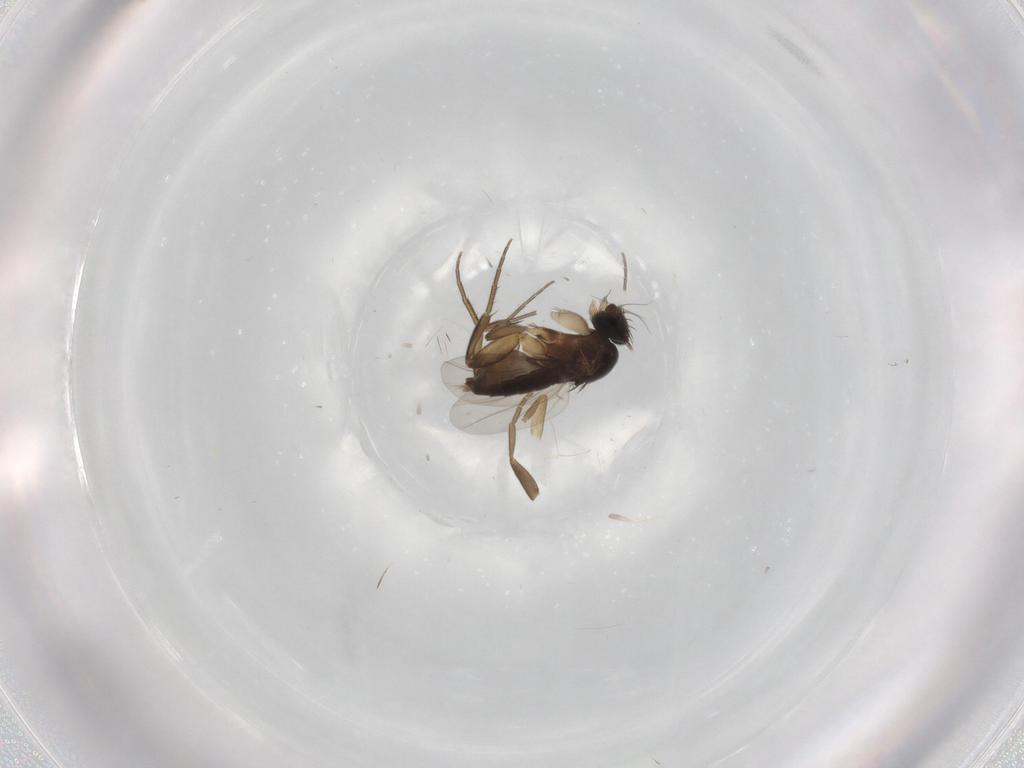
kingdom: Animalia
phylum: Arthropoda
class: Insecta
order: Diptera
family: Phoridae
